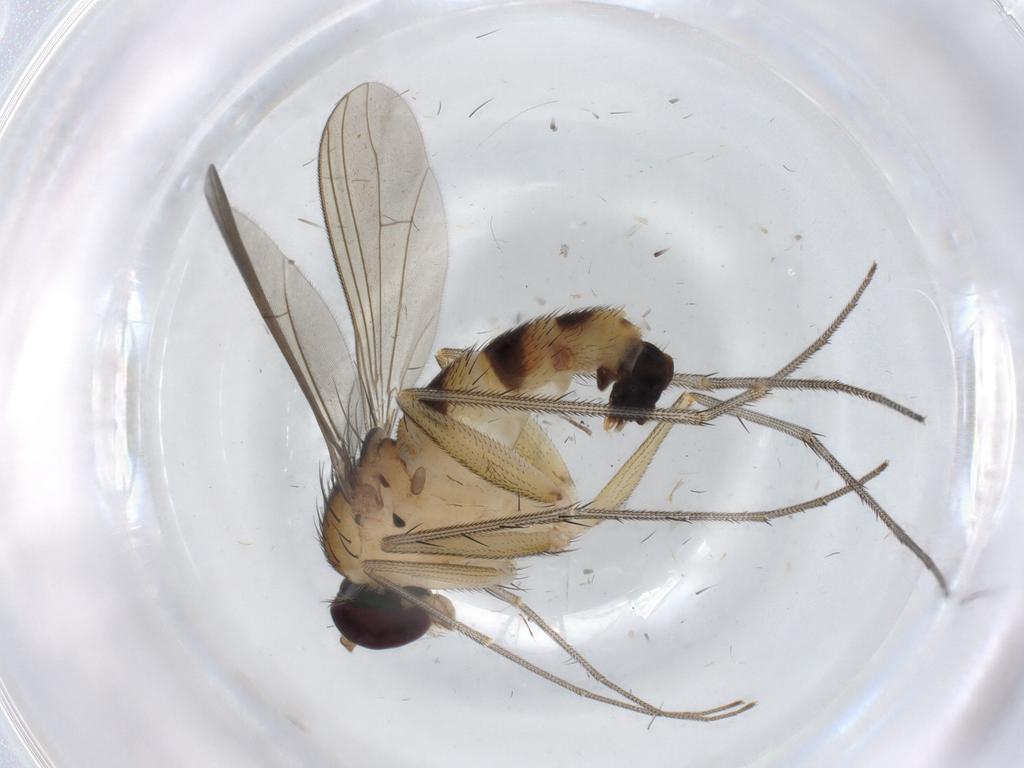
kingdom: Animalia
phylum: Arthropoda
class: Insecta
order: Diptera
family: Hybotidae
